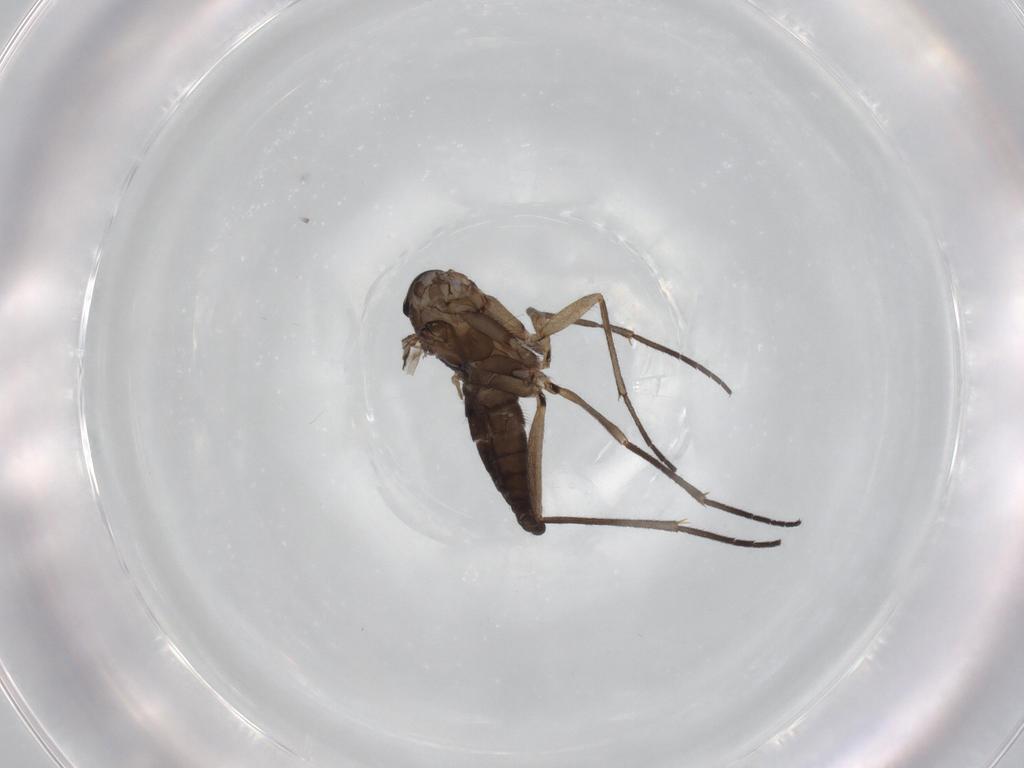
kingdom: Animalia
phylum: Arthropoda
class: Insecta
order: Diptera
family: Sciaridae
